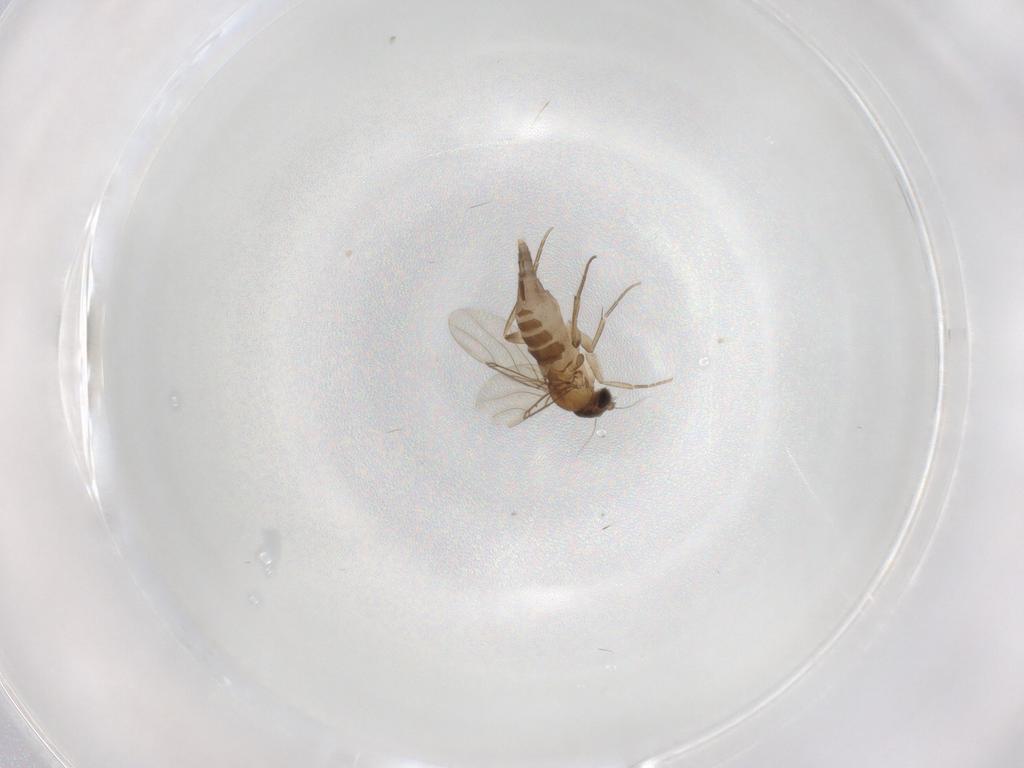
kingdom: Animalia
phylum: Arthropoda
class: Insecta
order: Diptera
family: Phoridae
